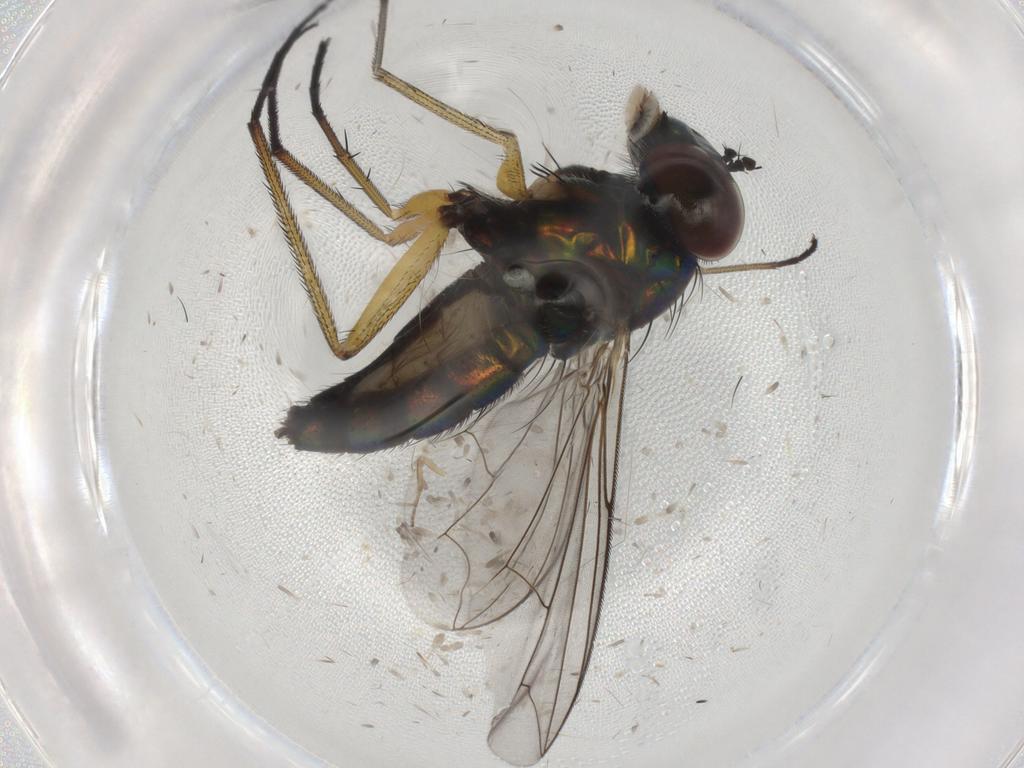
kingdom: Animalia
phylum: Arthropoda
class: Insecta
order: Diptera
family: Dolichopodidae
